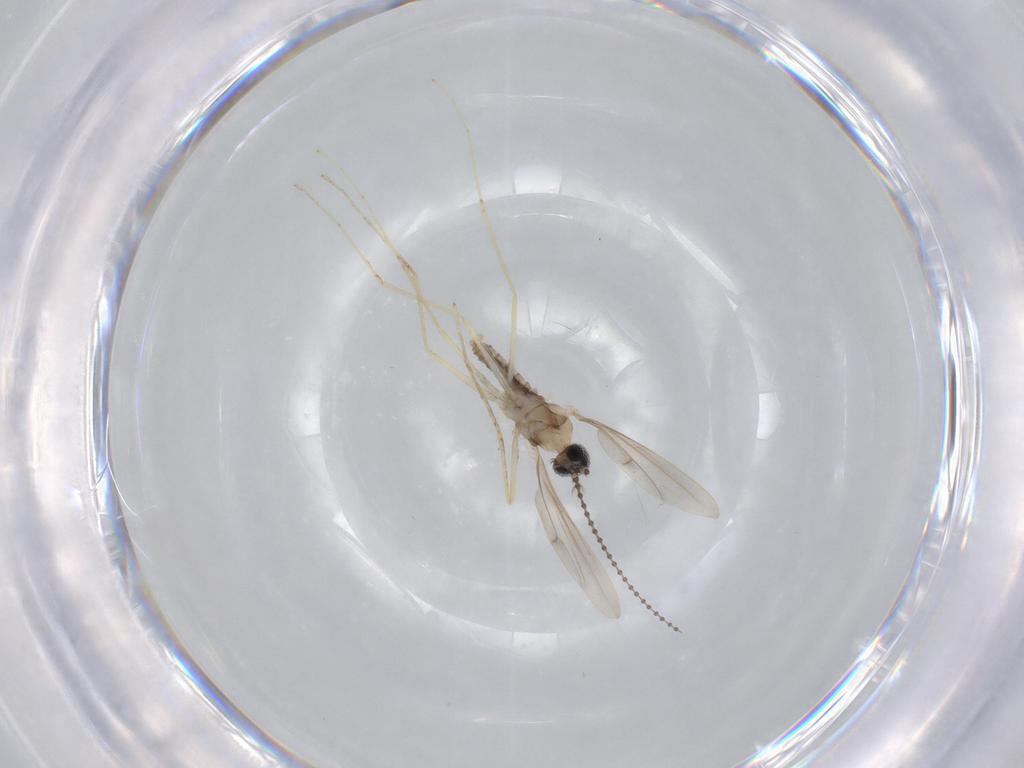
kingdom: Animalia
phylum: Arthropoda
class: Insecta
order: Diptera
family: Cecidomyiidae
